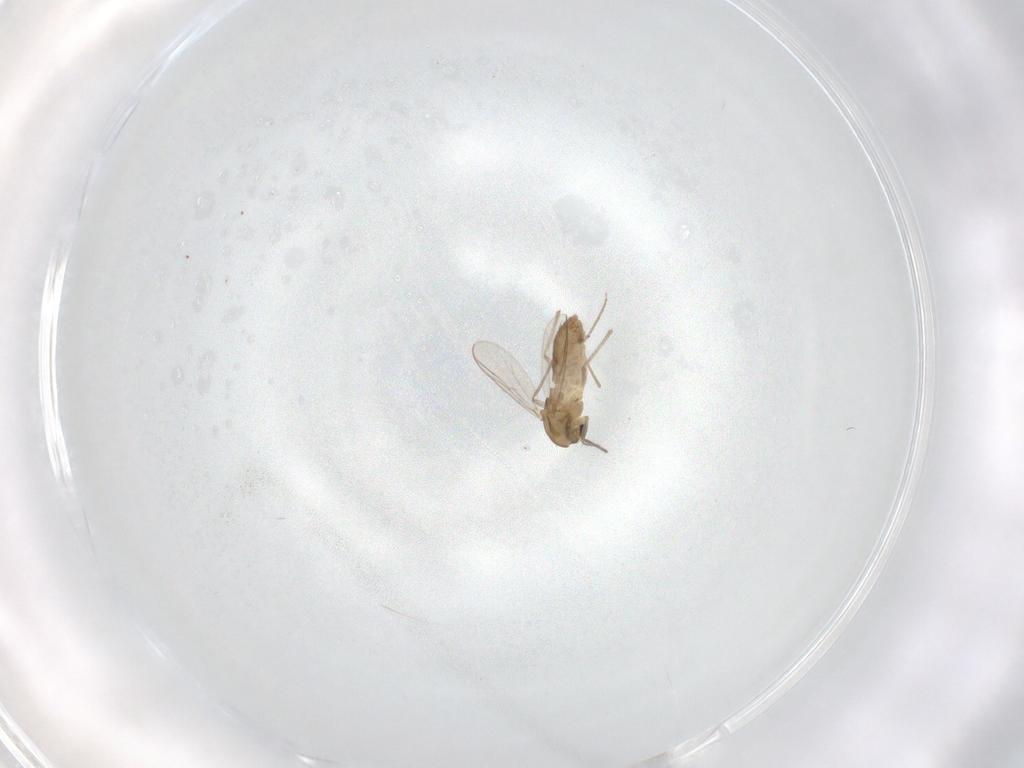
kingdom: Animalia
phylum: Arthropoda
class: Insecta
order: Diptera
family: Chironomidae
